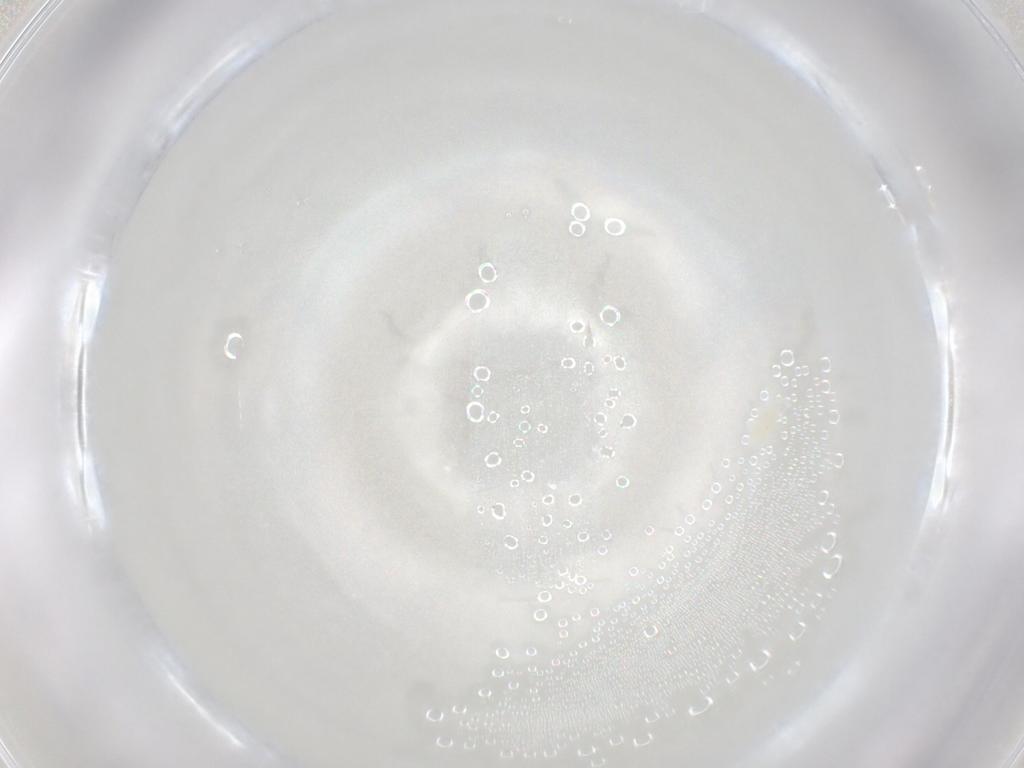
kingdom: Animalia
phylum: Arthropoda
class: Arachnida
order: Trombidiformes
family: Eupodidae
